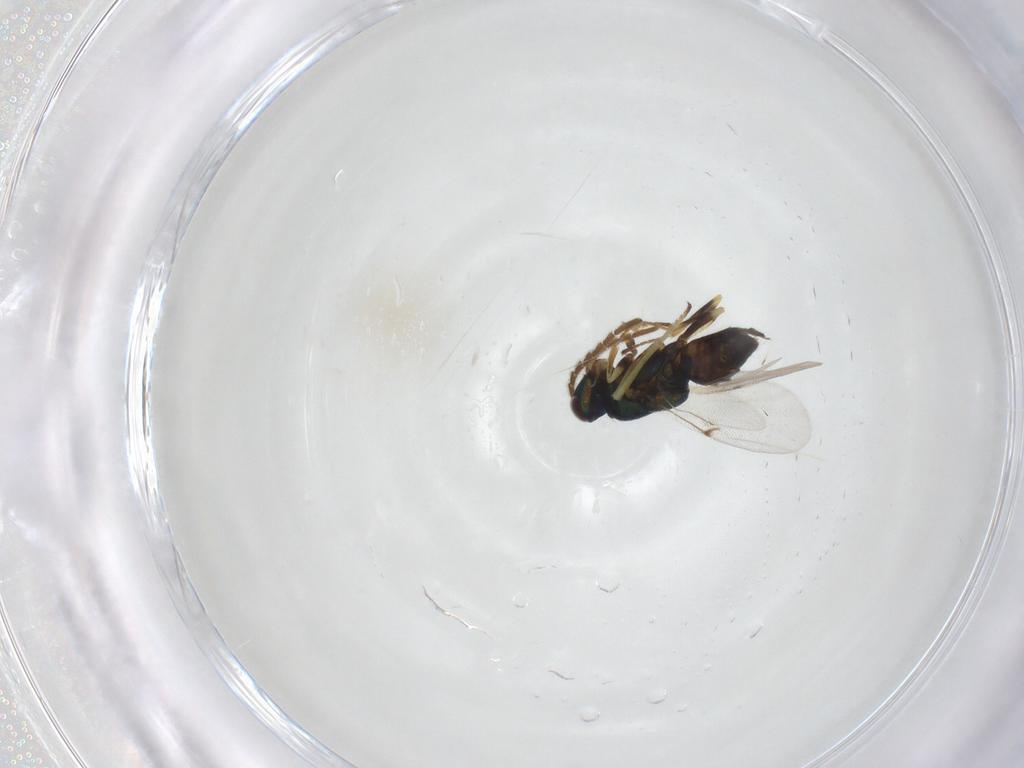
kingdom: Animalia
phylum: Arthropoda
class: Insecta
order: Hymenoptera
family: Encyrtidae
